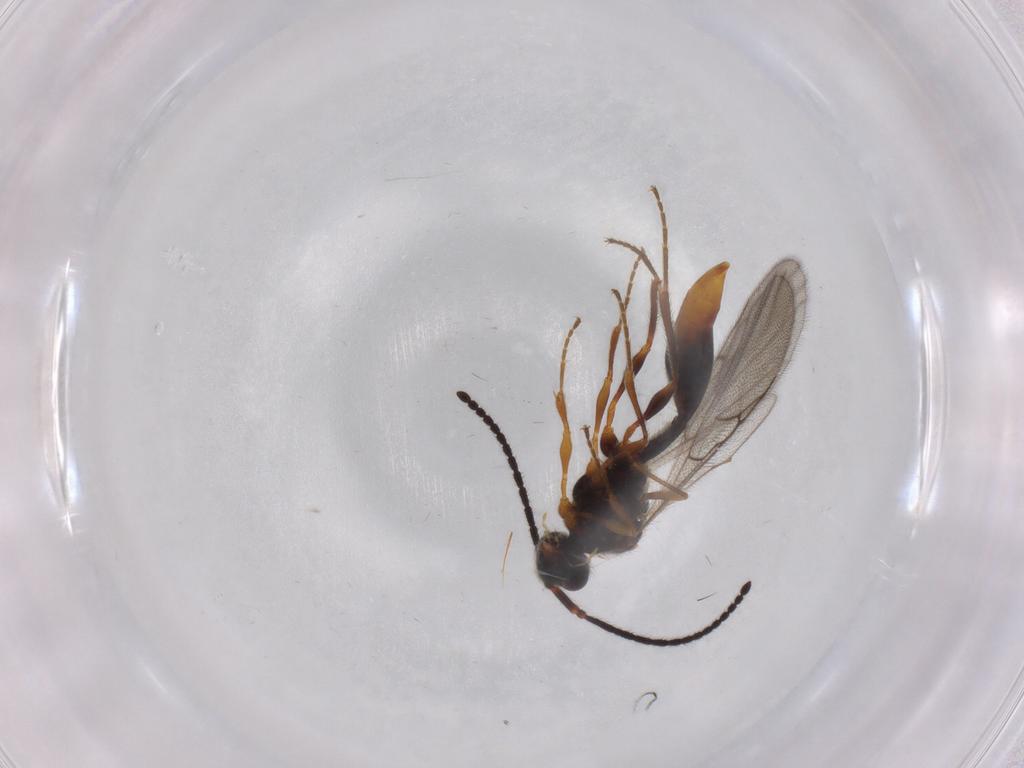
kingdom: Animalia
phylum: Arthropoda
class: Insecta
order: Hymenoptera
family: Diapriidae
